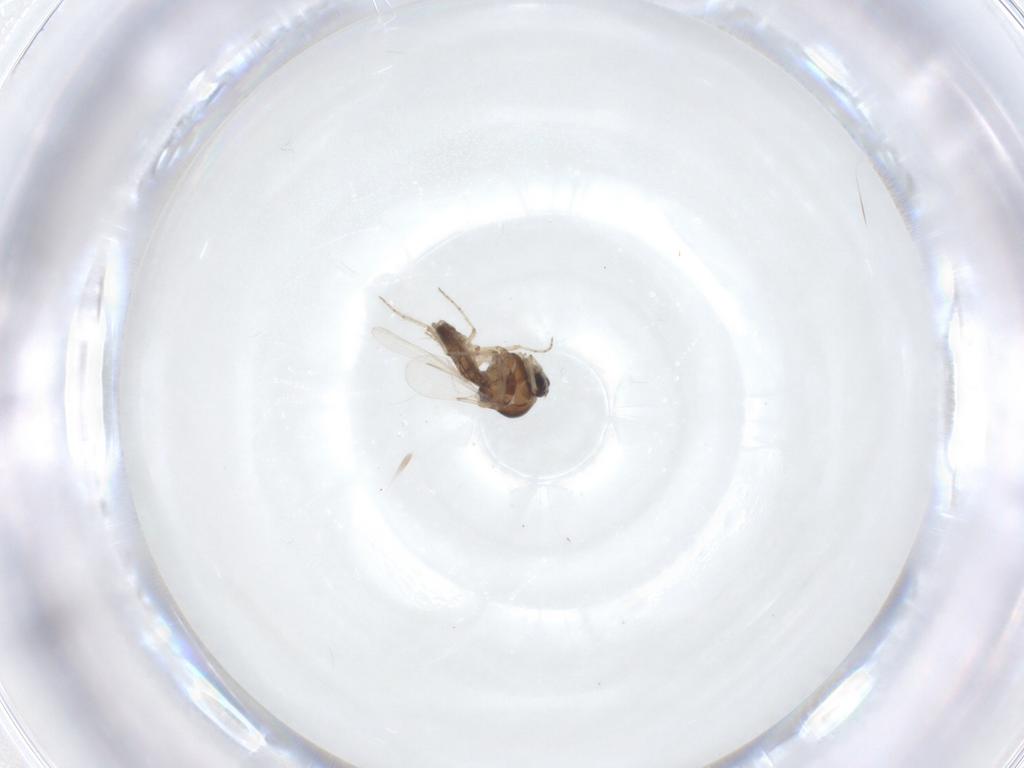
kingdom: Animalia
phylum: Arthropoda
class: Insecta
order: Diptera
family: Ceratopogonidae
